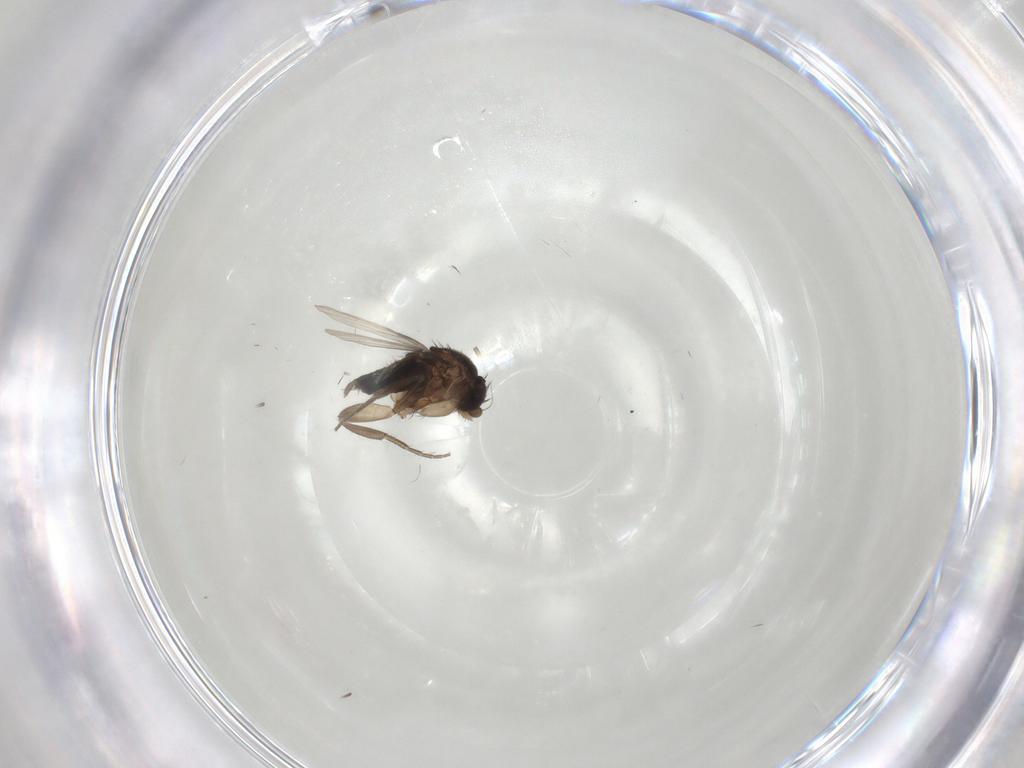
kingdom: Animalia
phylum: Arthropoda
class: Insecta
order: Diptera
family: Phoridae
